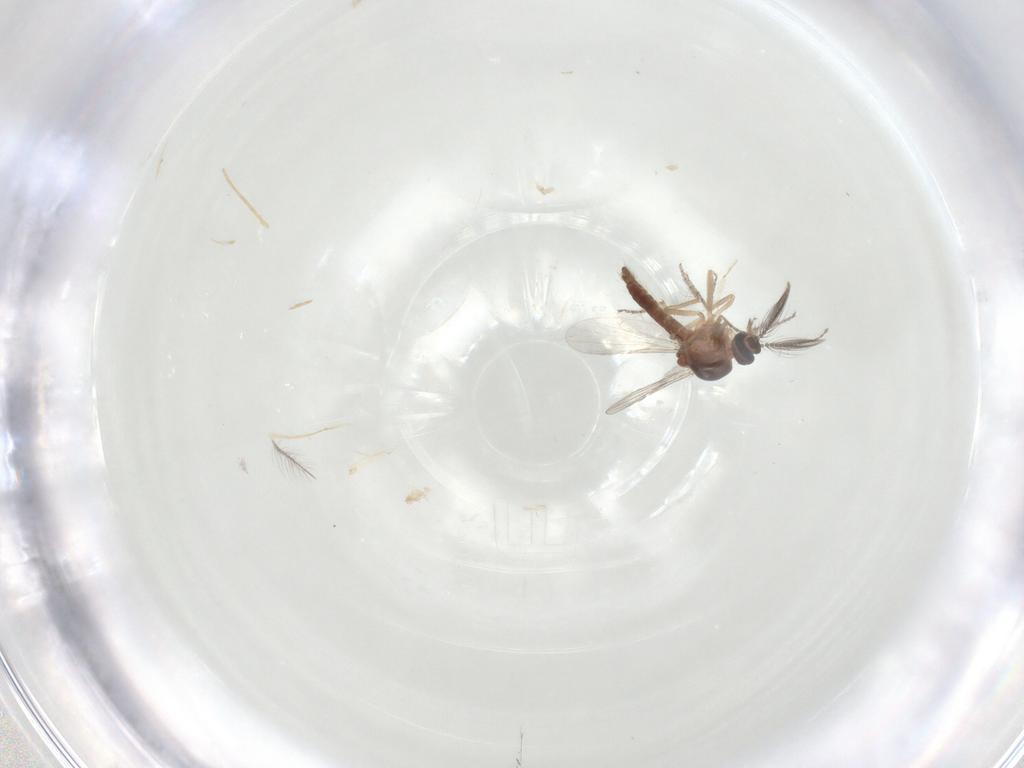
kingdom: Animalia
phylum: Arthropoda
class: Insecta
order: Diptera
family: Ceratopogonidae
